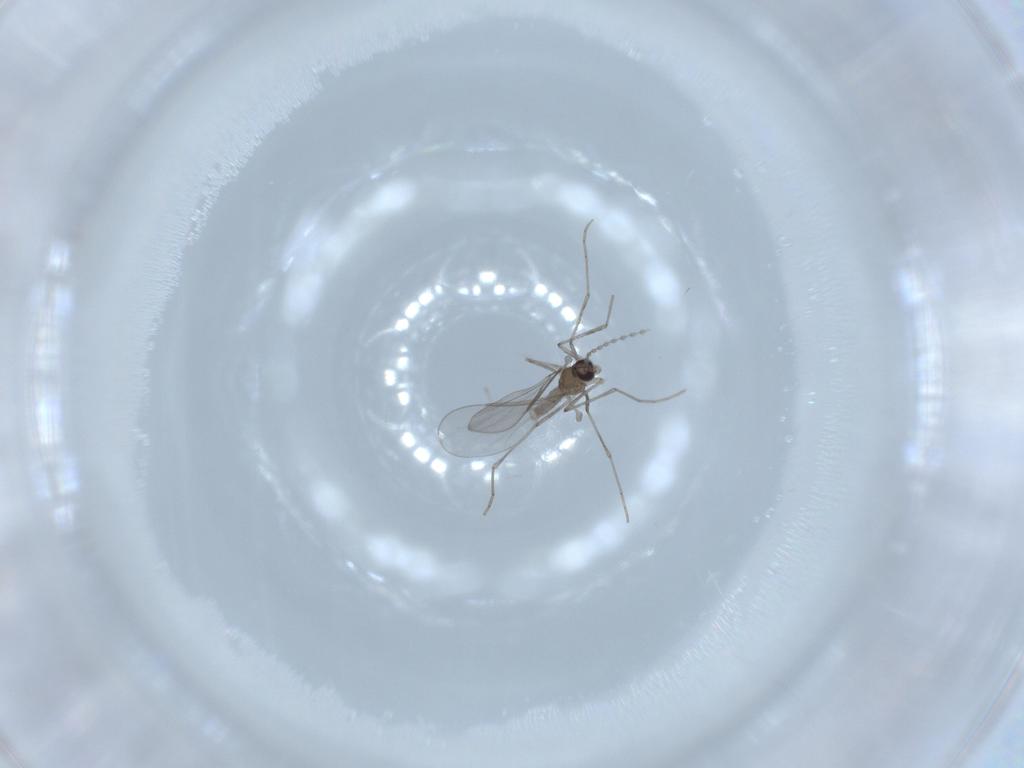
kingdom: Animalia
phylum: Arthropoda
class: Insecta
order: Diptera
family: Cecidomyiidae
